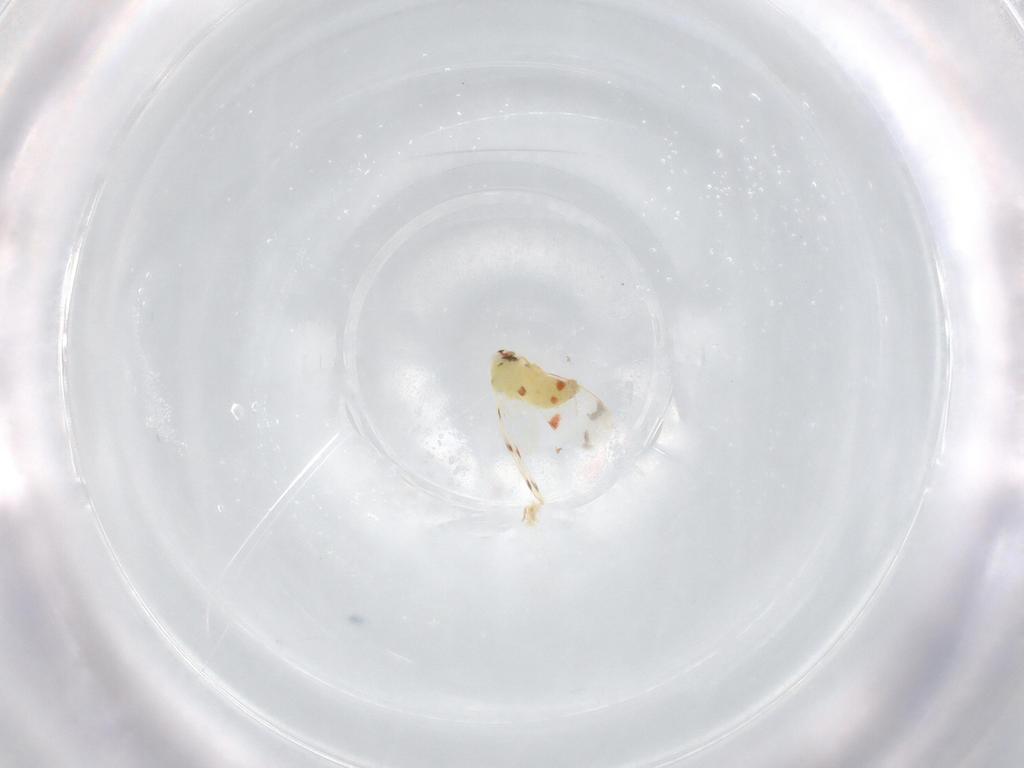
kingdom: Animalia
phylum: Arthropoda
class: Insecta
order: Hemiptera
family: Aleyrodidae
